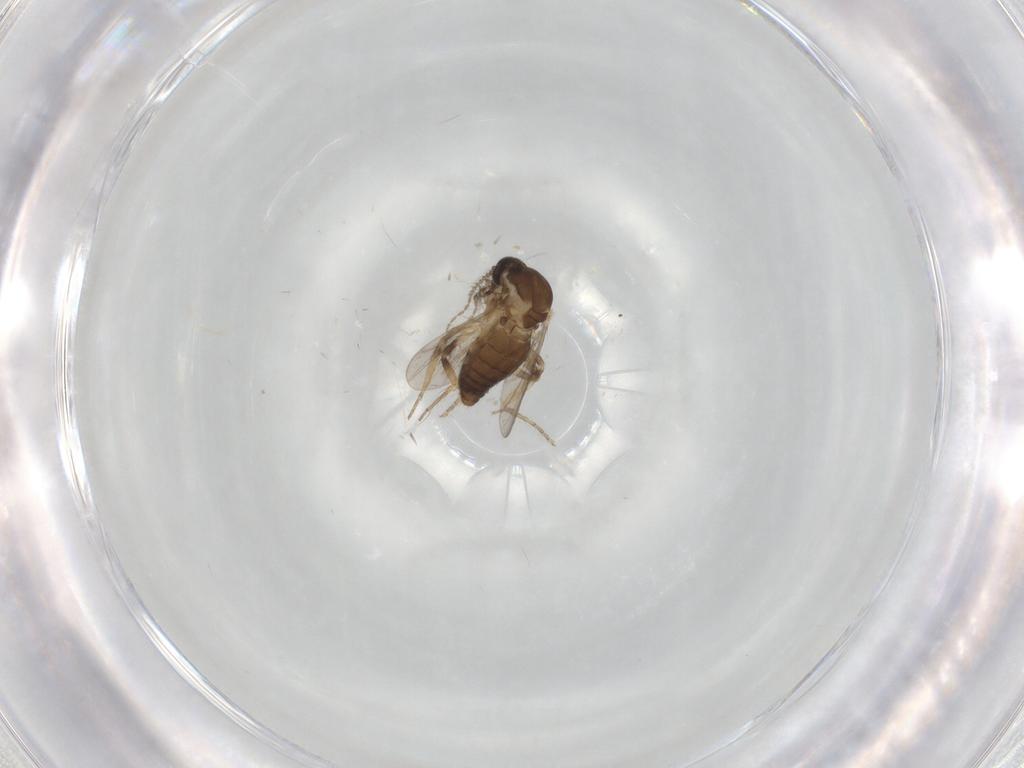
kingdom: Animalia
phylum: Arthropoda
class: Insecta
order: Diptera
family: Ceratopogonidae
